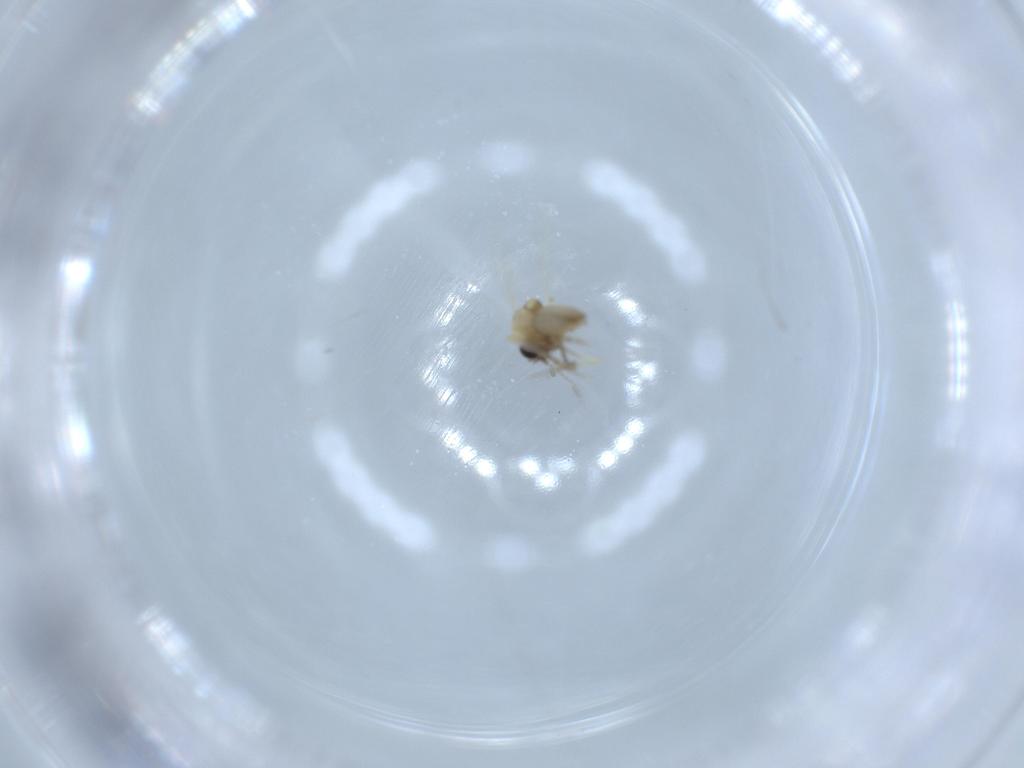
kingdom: Animalia
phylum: Arthropoda
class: Insecta
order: Diptera
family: Ceratopogonidae
